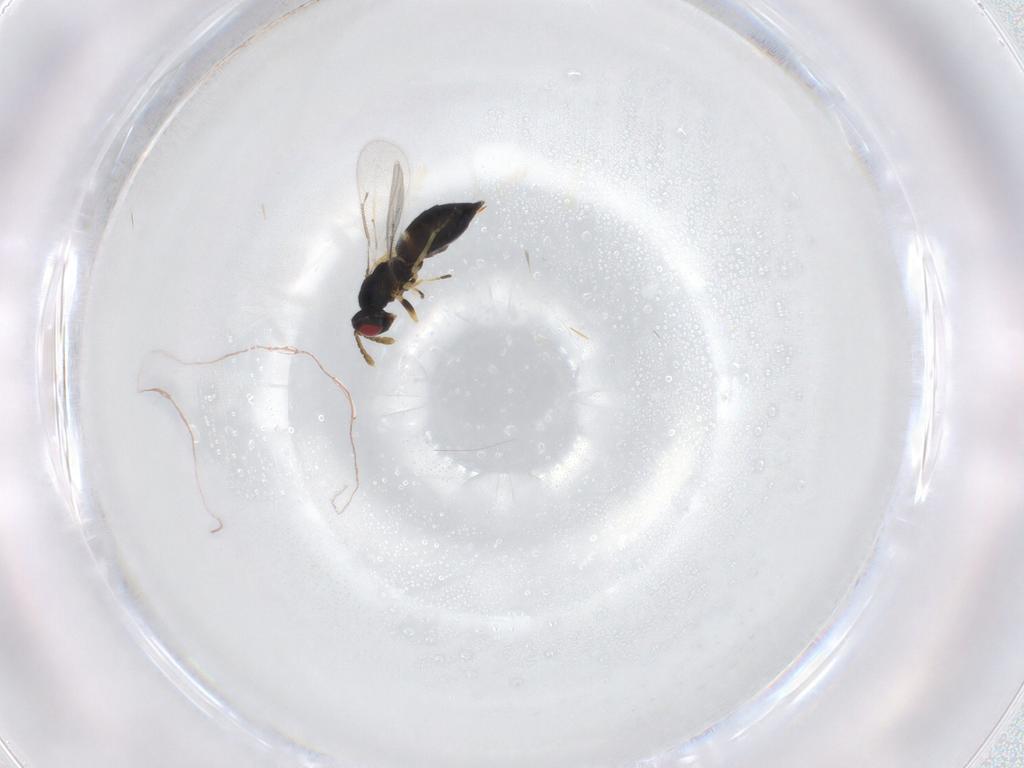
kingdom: Animalia
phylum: Arthropoda
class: Insecta
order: Hymenoptera
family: Eulophidae
